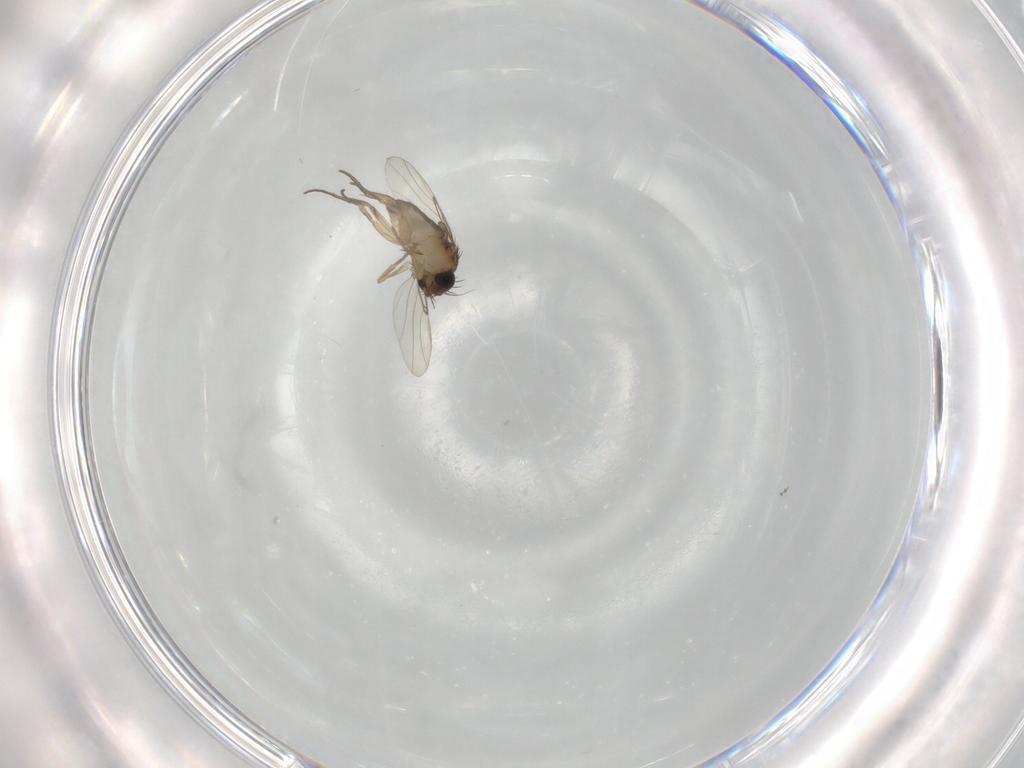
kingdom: Animalia
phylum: Arthropoda
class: Insecta
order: Diptera
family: Phoridae
